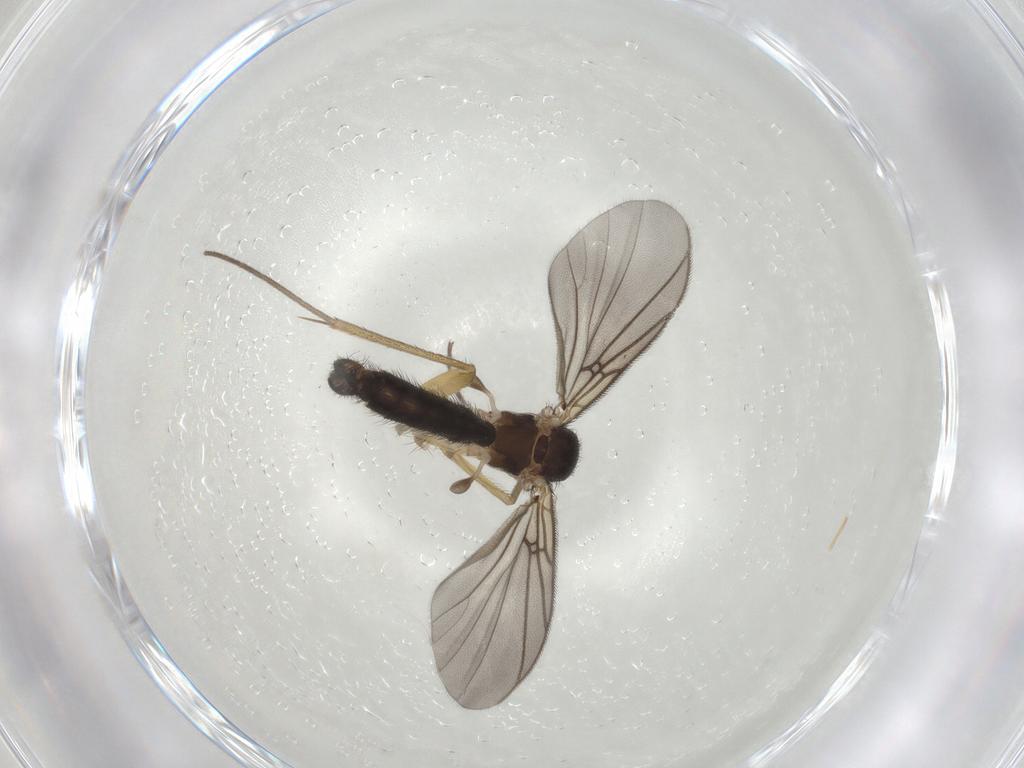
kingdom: Animalia
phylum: Arthropoda
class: Insecta
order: Diptera
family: Mycetophilidae
